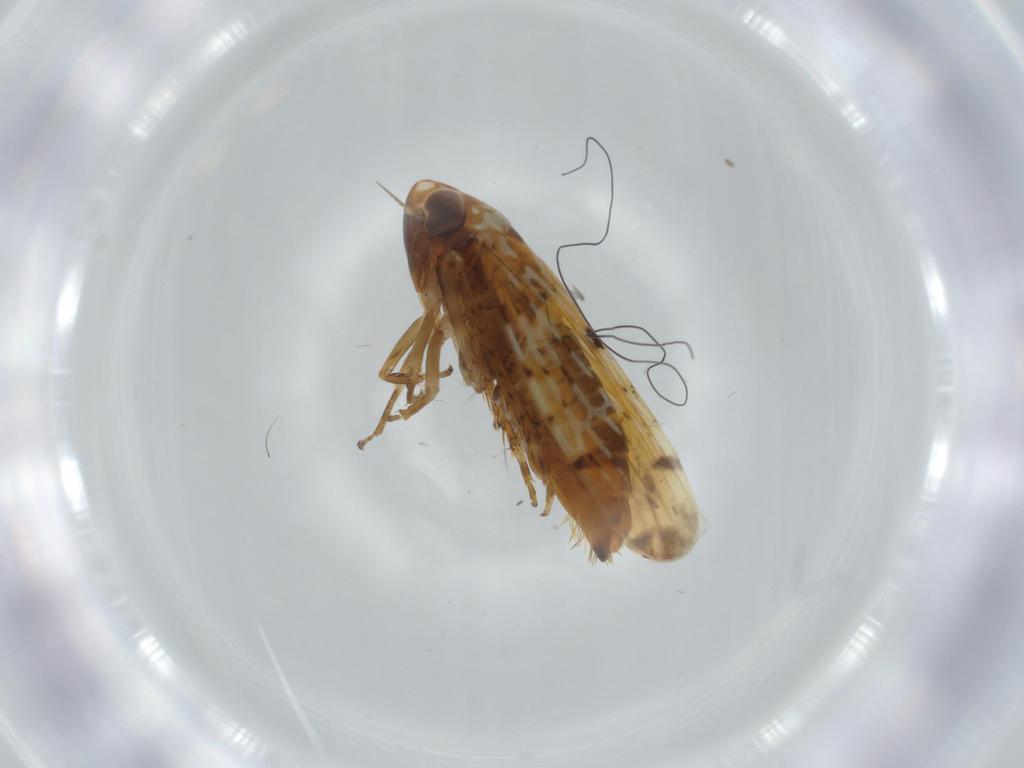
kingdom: Animalia
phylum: Arthropoda
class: Insecta
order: Hemiptera
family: Cicadellidae
